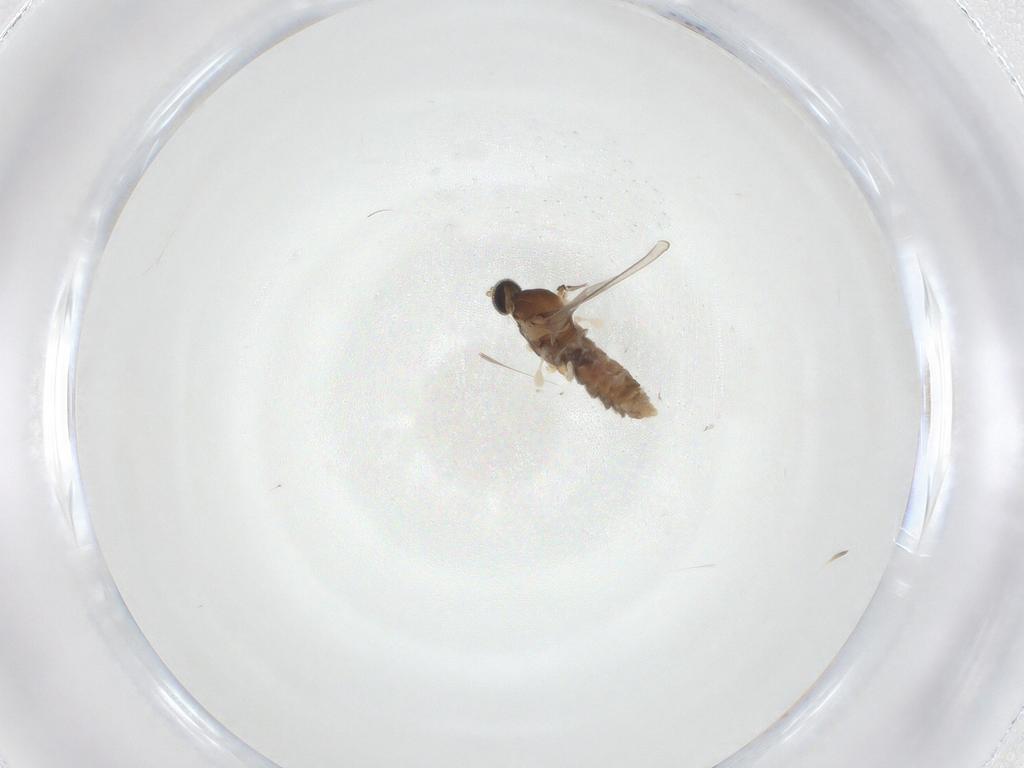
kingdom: Animalia
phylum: Arthropoda
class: Insecta
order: Diptera
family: Cecidomyiidae
